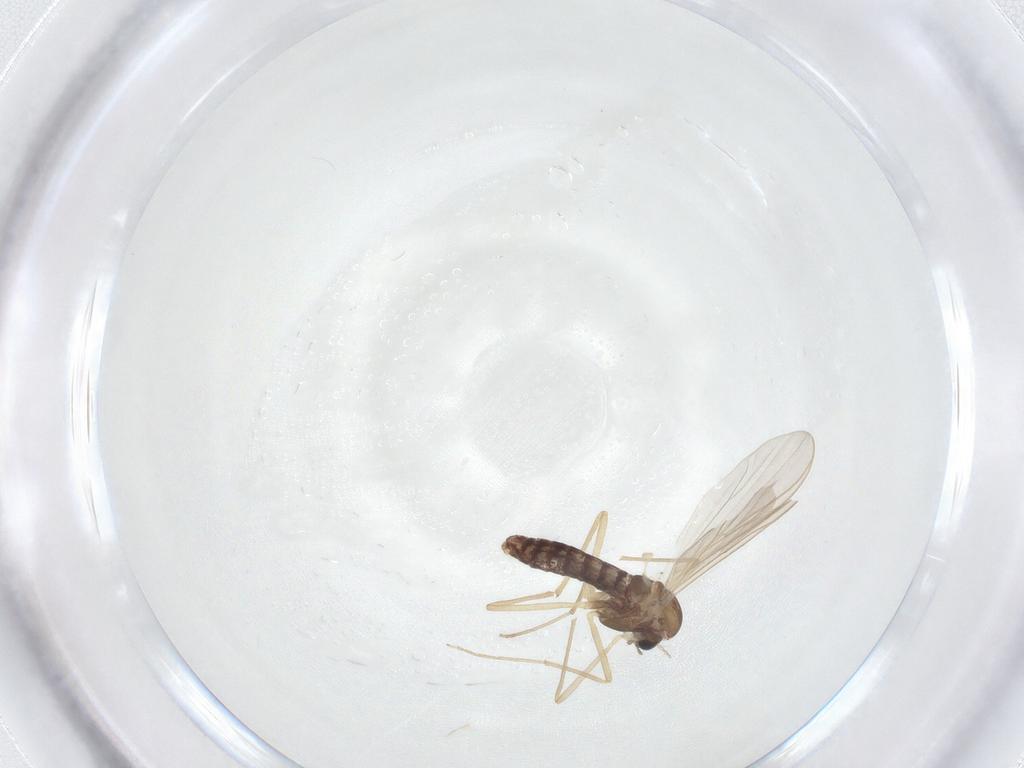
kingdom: Animalia
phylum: Arthropoda
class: Insecta
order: Diptera
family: Chironomidae
